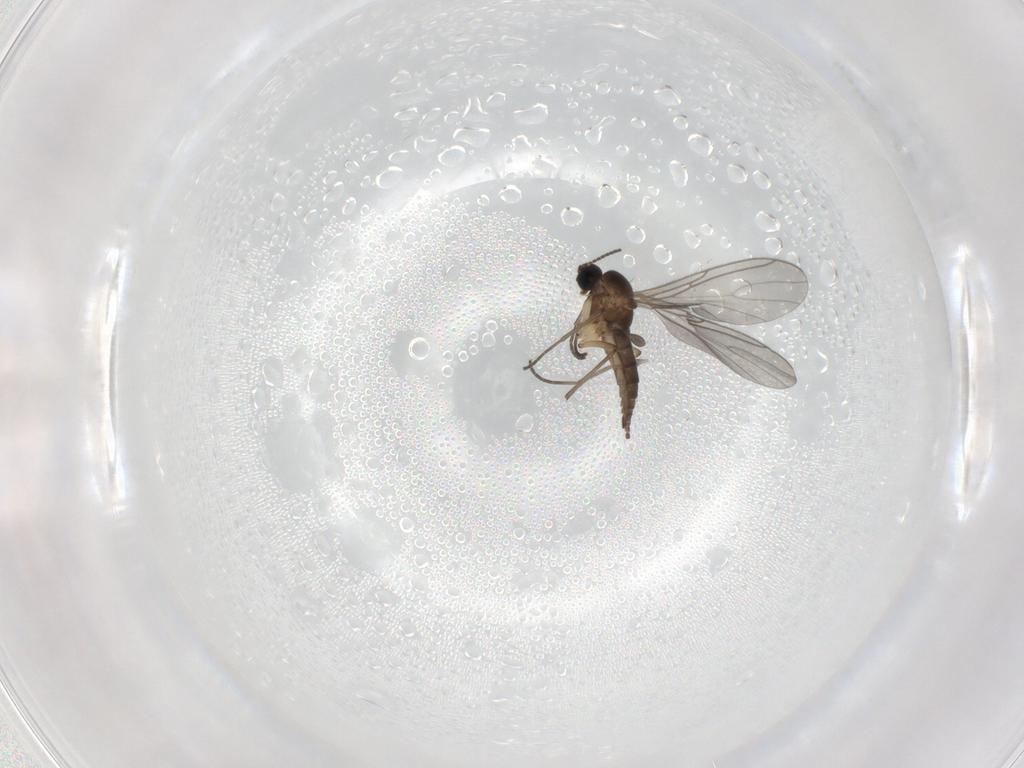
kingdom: Animalia
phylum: Arthropoda
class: Insecta
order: Diptera
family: Sciaridae
